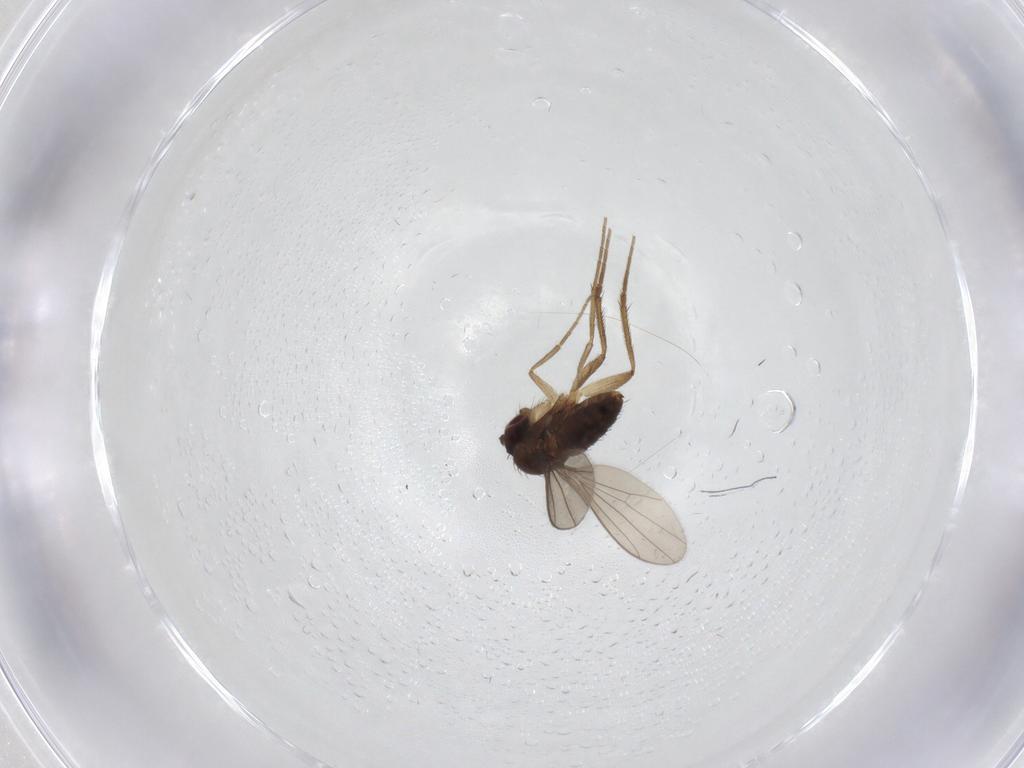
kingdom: Animalia
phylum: Arthropoda
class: Insecta
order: Diptera
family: Dolichopodidae
